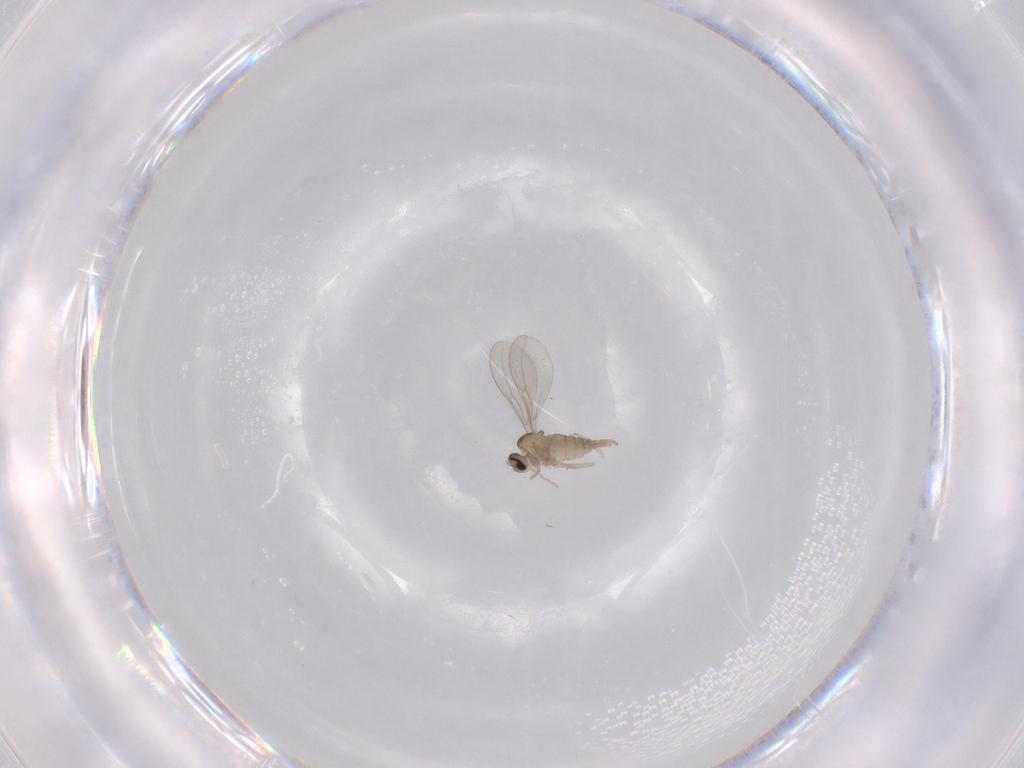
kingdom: Animalia
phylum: Arthropoda
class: Insecta
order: Diptera
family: Cecidomyiidae
